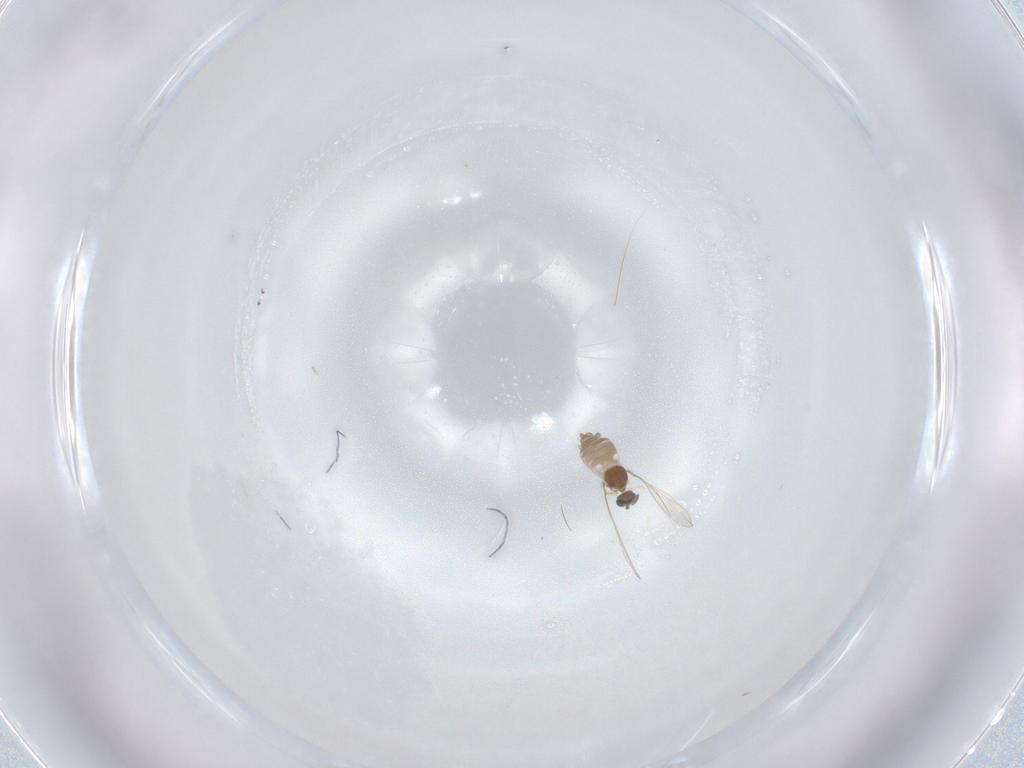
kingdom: Animalia
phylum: Arthropoda
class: Insecta
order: Diptera
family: Cecidomyiidae
